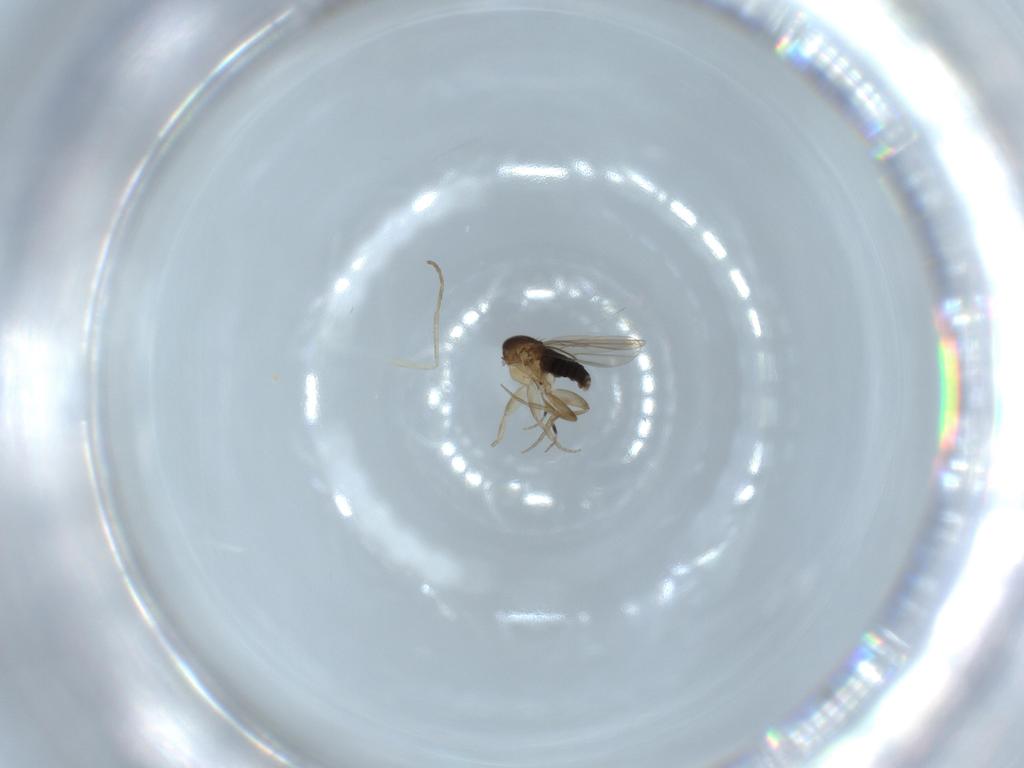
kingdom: Animalia
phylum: Arthropoda
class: Insecta
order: Diptera
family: Phoridae
